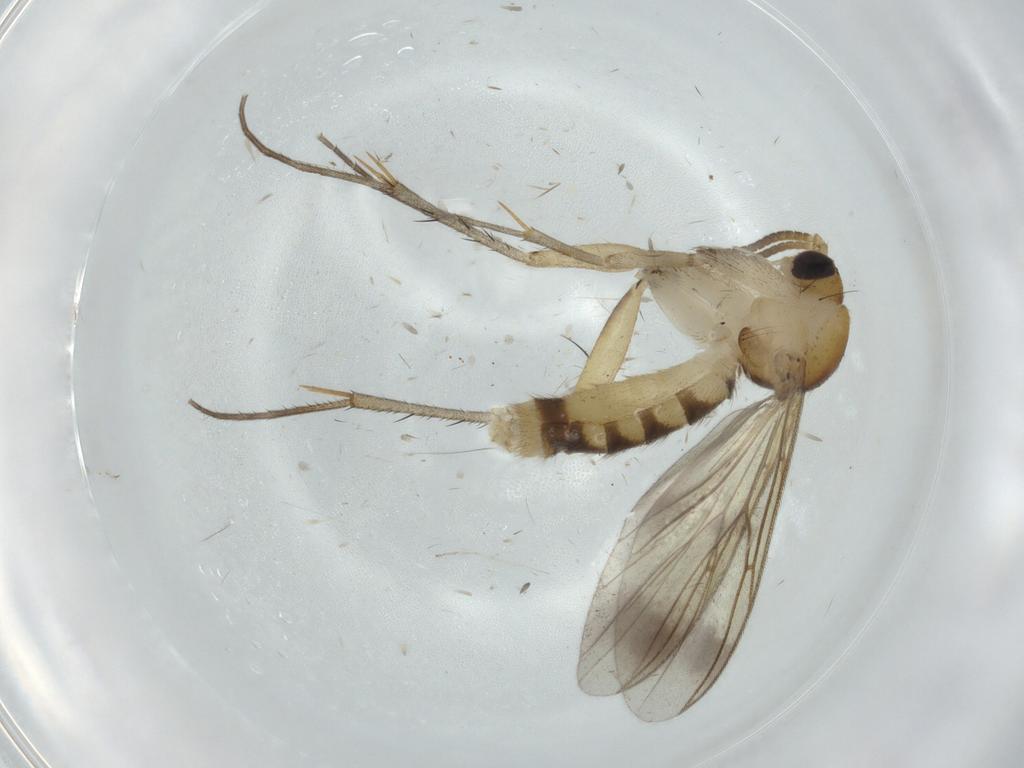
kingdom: Animalia
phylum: Arthropoda
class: Insecta
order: Diptera
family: Mycetophilidae
